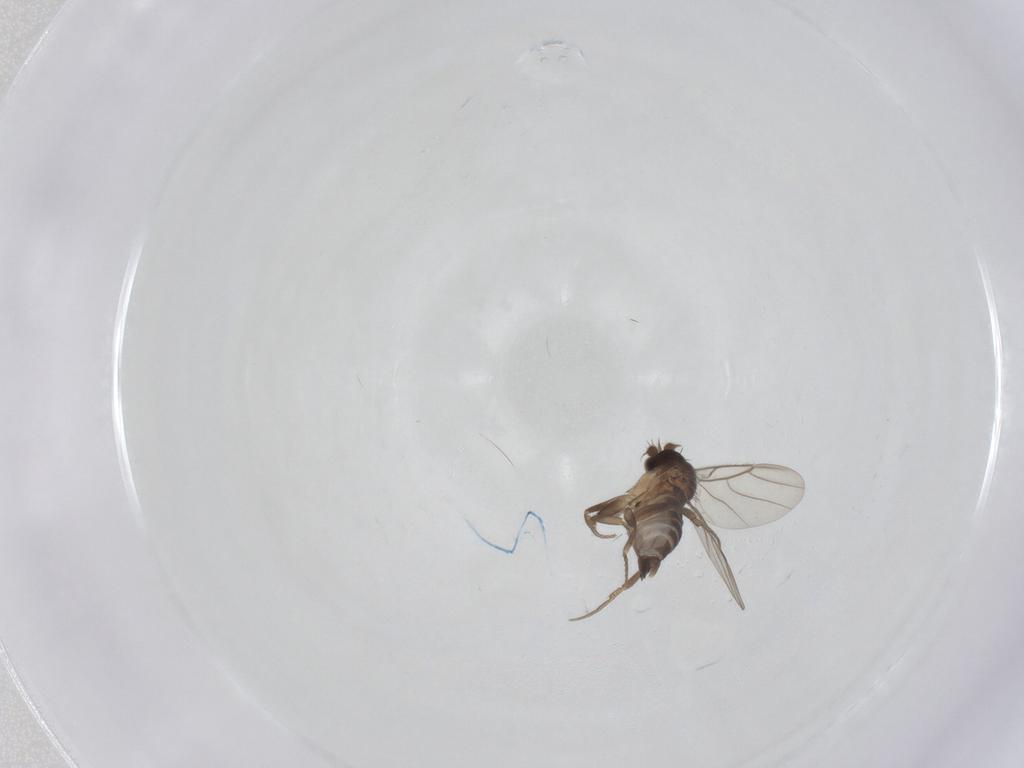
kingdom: Animalia
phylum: Arthropoda
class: Insecta
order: Diptera
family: Phoridae
